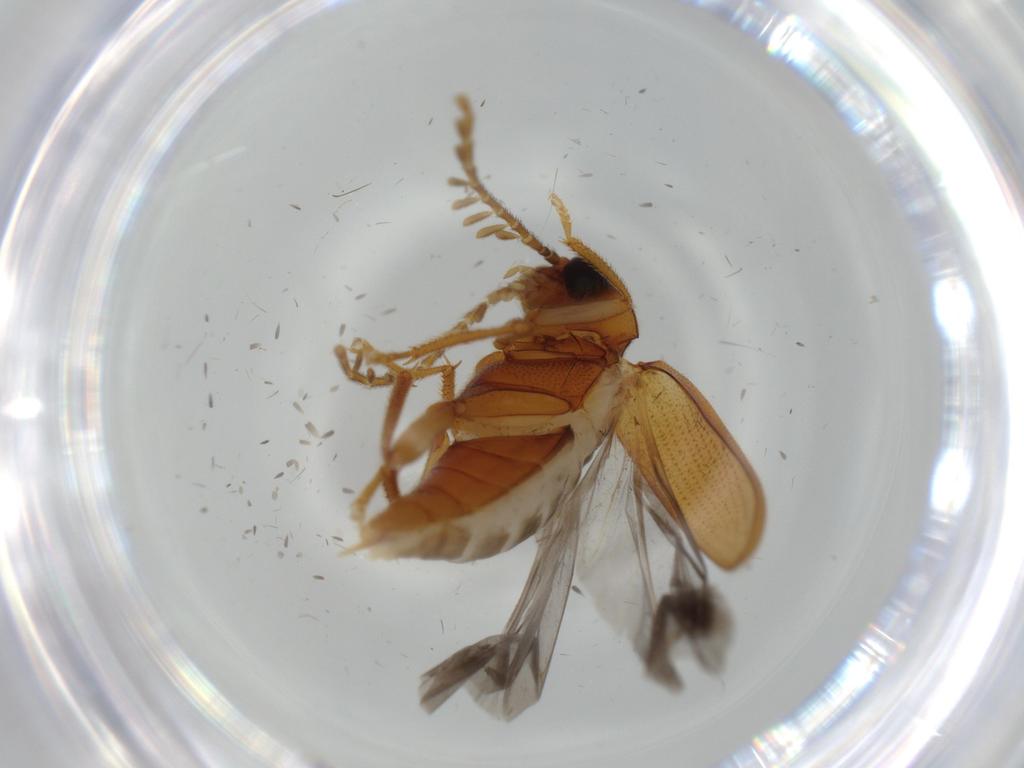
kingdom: Animalia
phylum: Arthropoda
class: Insecta
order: Coleoptera
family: Ptilodactylidae
